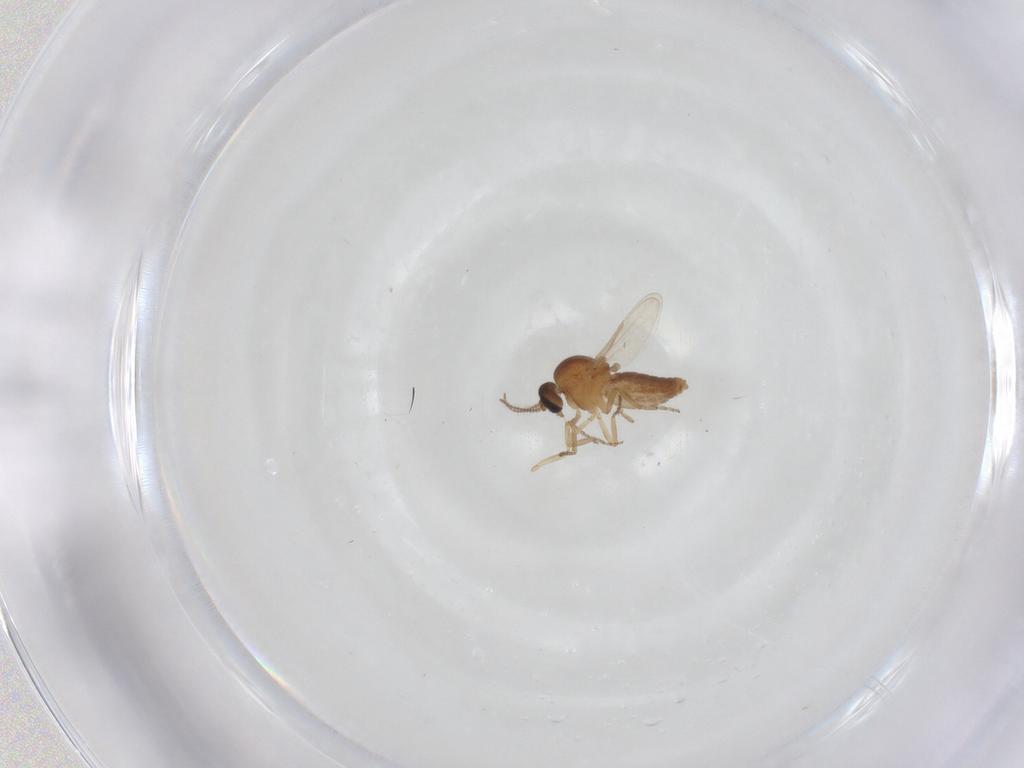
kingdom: Animalia
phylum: Arthropoda
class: Insecta
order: Diptera
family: Ceratopogonidae
